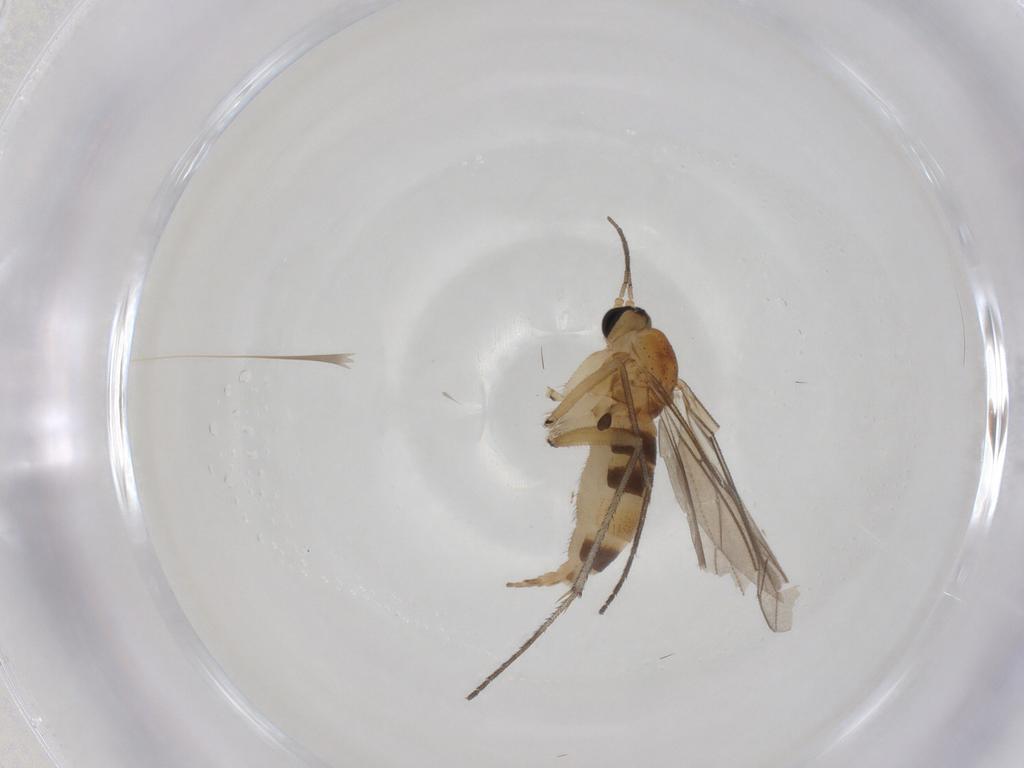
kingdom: Animalia
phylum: Arthropoda
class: Insecta
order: Diptera
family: Sciaridae
